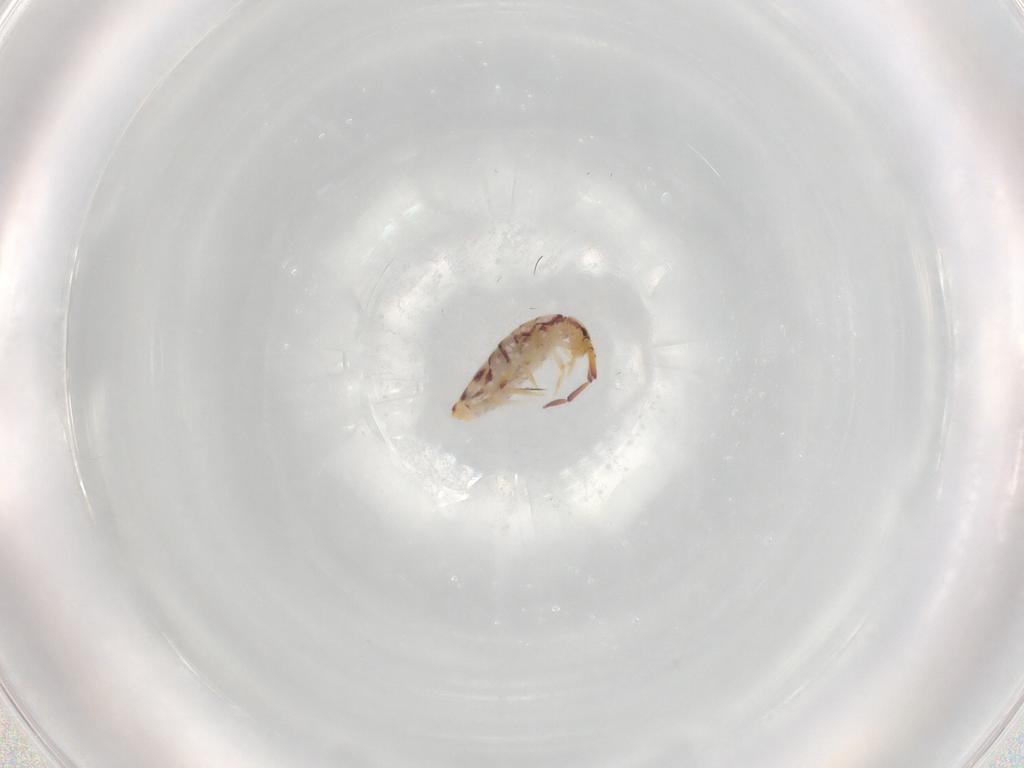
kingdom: Animalia
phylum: Arthropoda
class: Collembola
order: Entomobryomorpha
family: Entomobryidae
